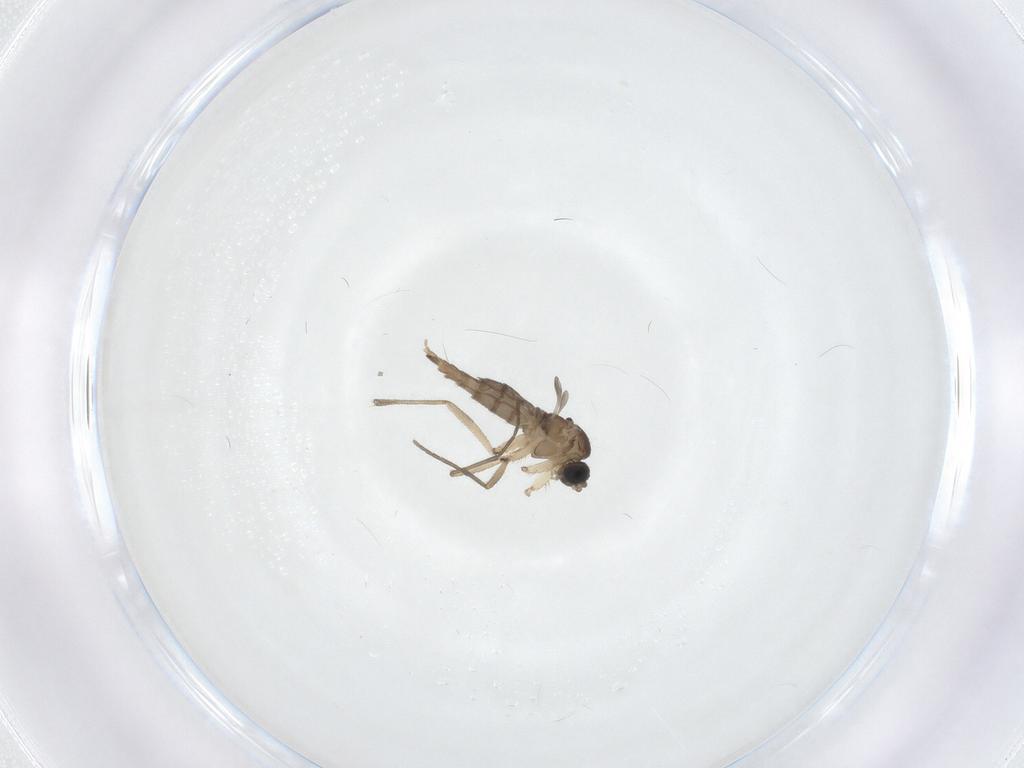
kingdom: Animalia
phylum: Arthropoda
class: Insecta
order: Diptera
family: Sciaridae
